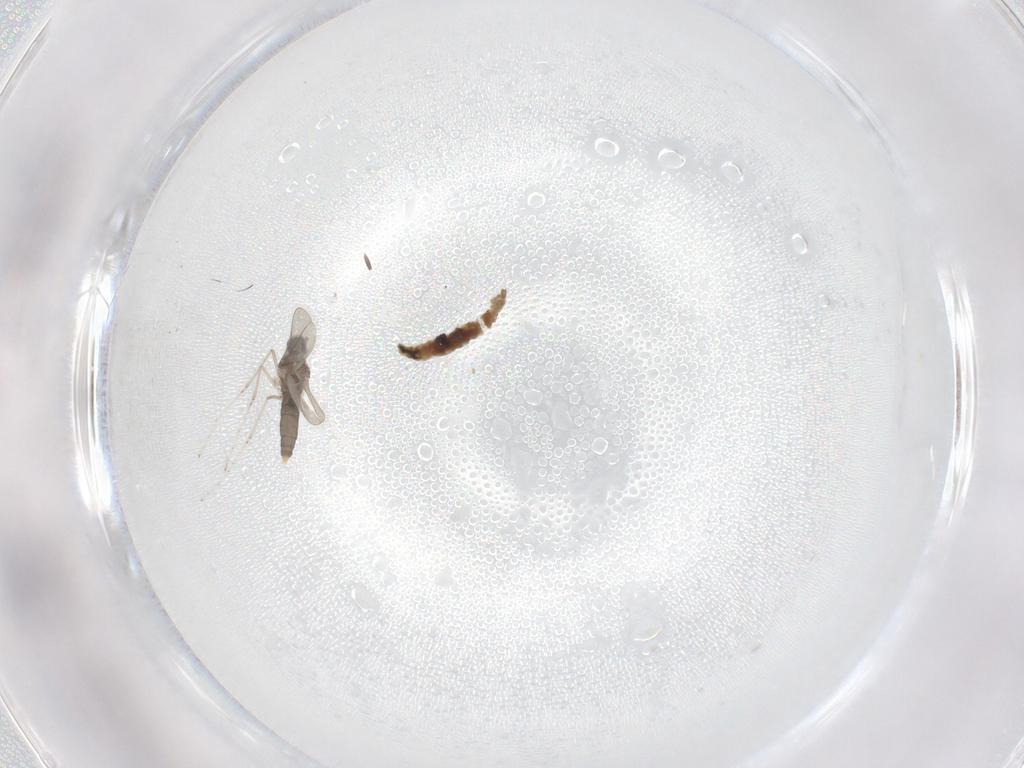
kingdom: Animalia
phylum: Arthropoda
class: Insecta
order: Diptera
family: Cecidomyiidae
